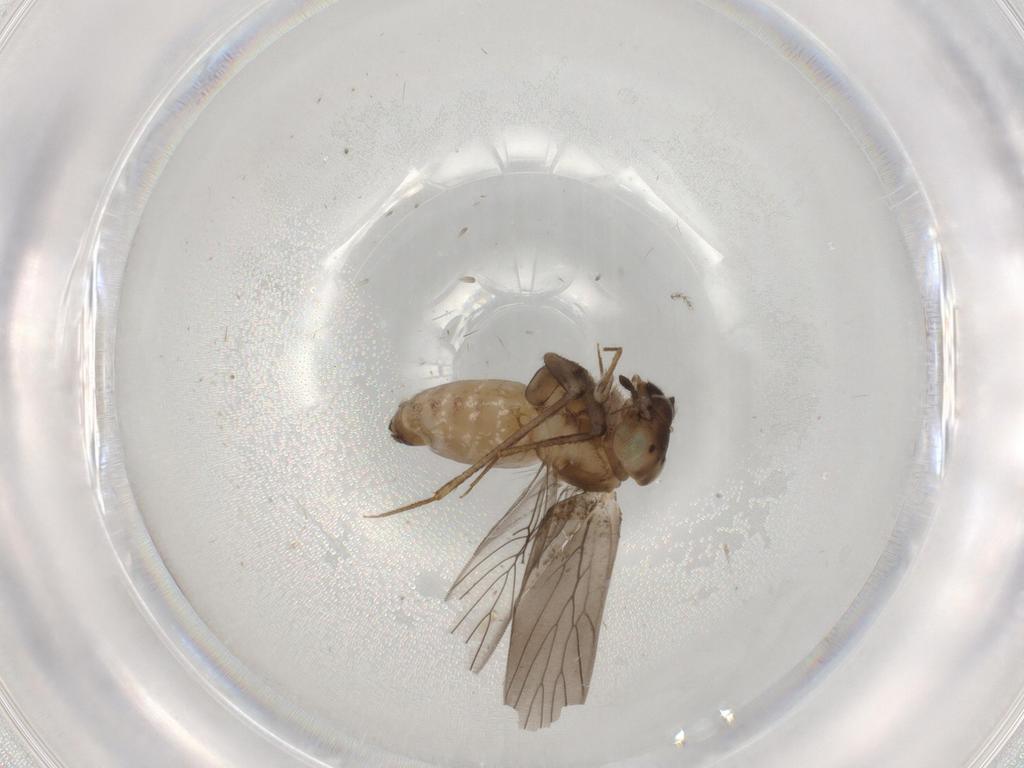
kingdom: Animalia
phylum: Arthropoda
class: Insecta
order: Psocodea
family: Lepidopsocidae
